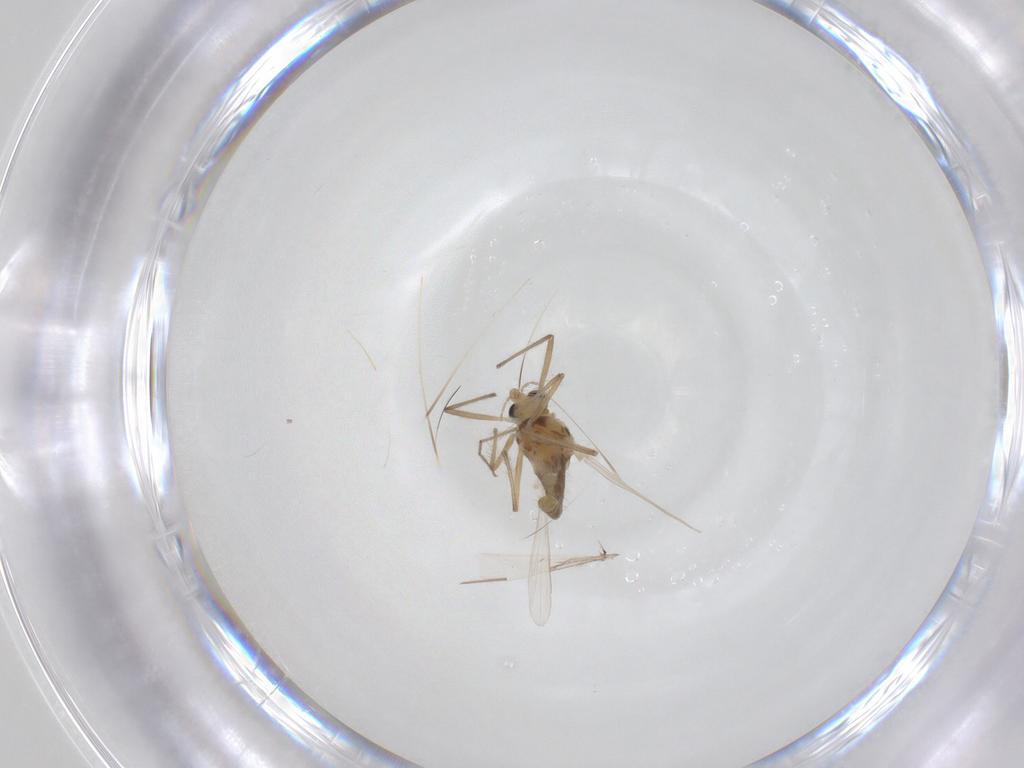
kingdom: Animalia
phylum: Arthropoda
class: Insecta
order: Diptera
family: Chironomidae
